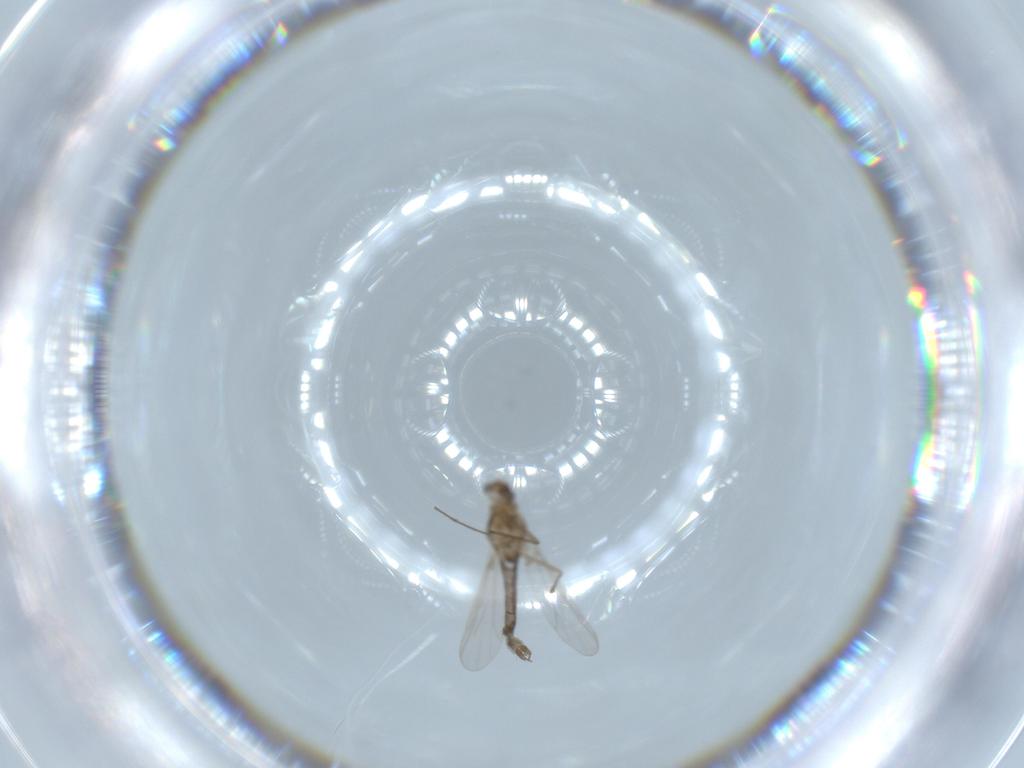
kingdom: Animalia
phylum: Arthropoda
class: Insecta
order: Diptera
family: Chironomidae
